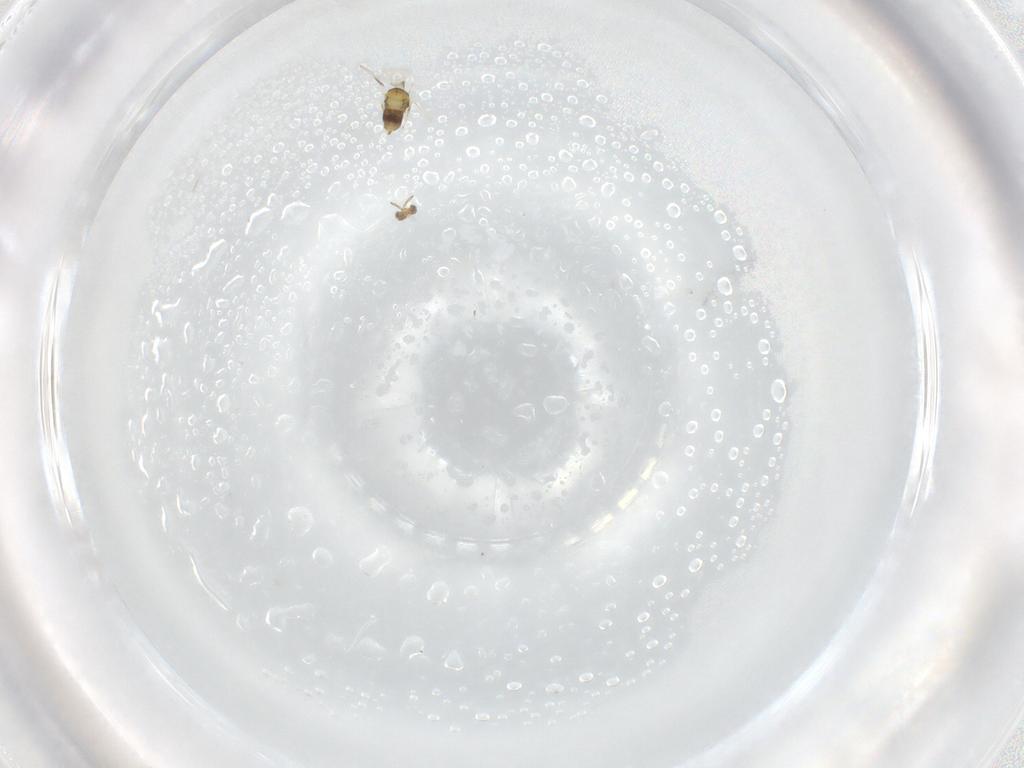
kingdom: Animalia
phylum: Arthropoda
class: Insecta
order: Hymenoptera
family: Aphelinidae
